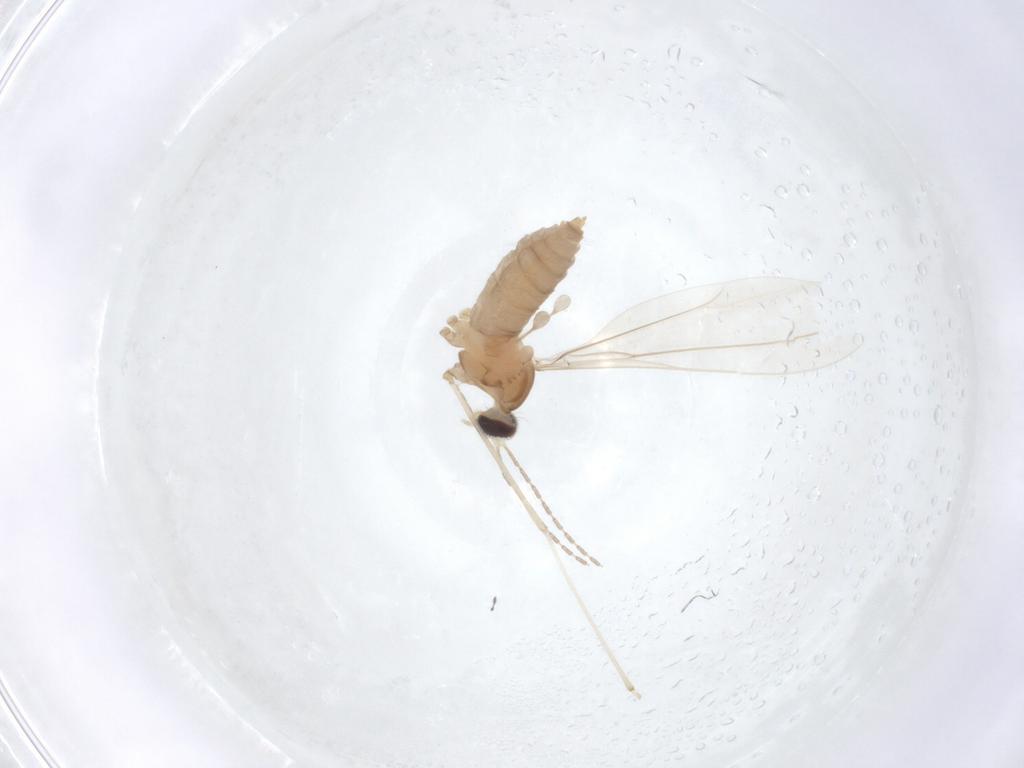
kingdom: Animalia
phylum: Arthropoda
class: Insecta
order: Diptera
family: Cecidomyiidae
